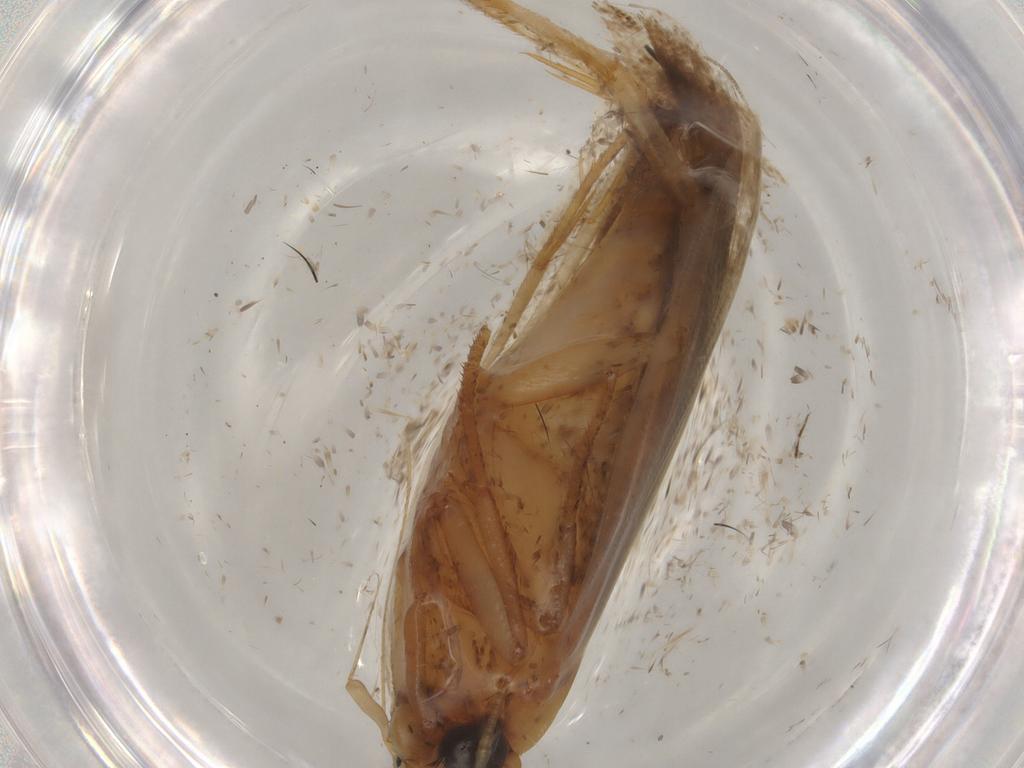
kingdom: Animalia
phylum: Arthropoda
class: Insecta
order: Lepidoptera
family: Gelechiidae
